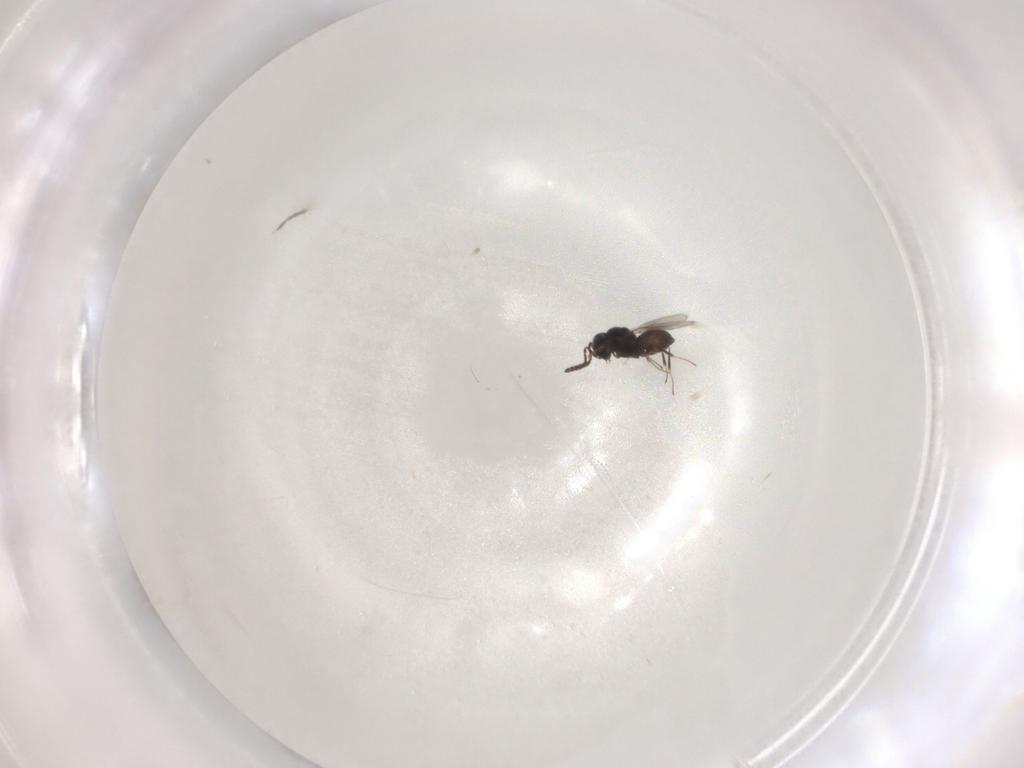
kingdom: Animalia
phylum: Arthropoda
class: Insecta
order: Hymenoptera
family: Scelionidae
